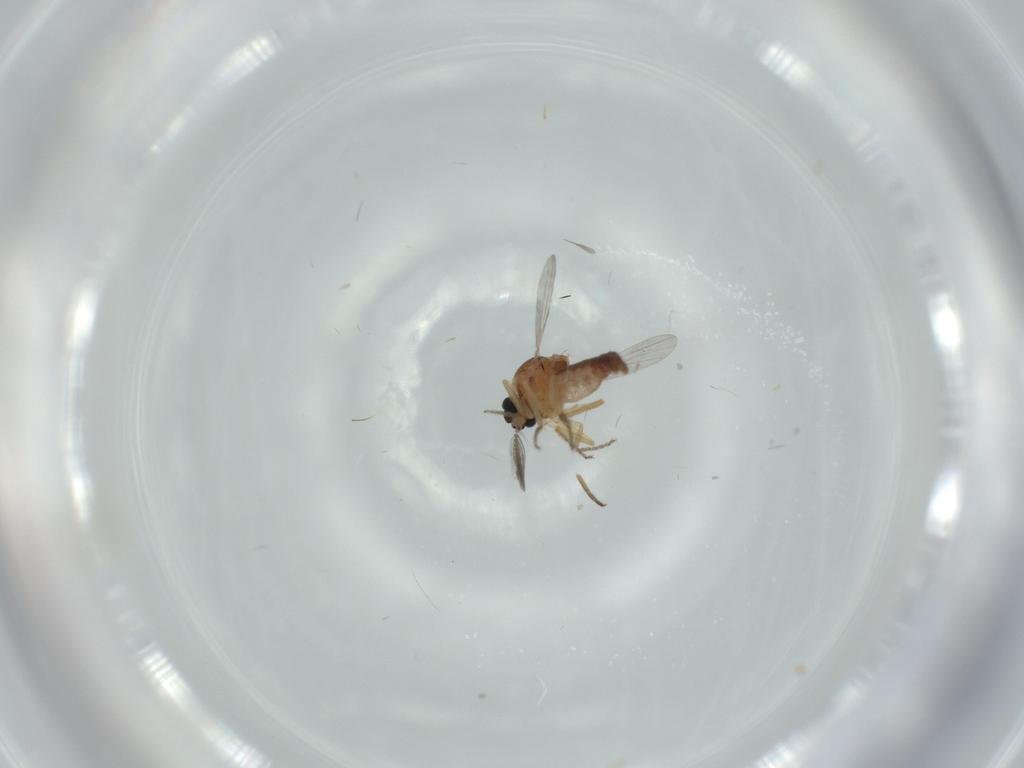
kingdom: Animalia
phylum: Arthropoda
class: Insecta
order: Diptera
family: Ceratopogonidae
